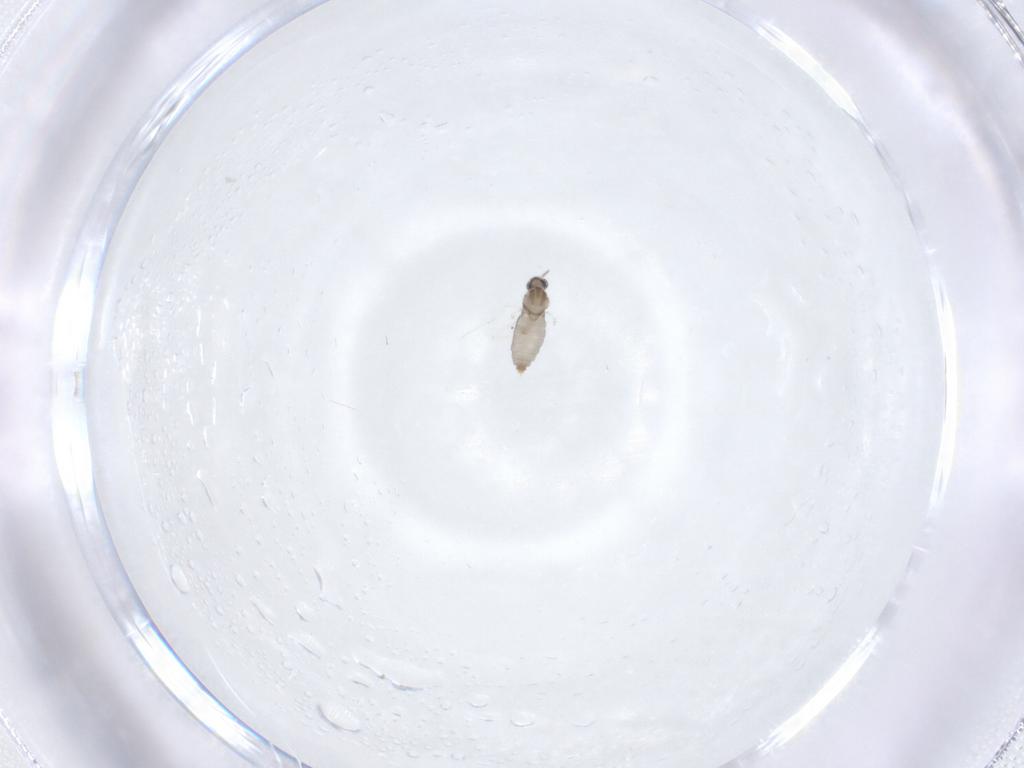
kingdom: Animalia
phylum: Arthropoda
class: Insecta
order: Diptera
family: Cecidomyiidae
